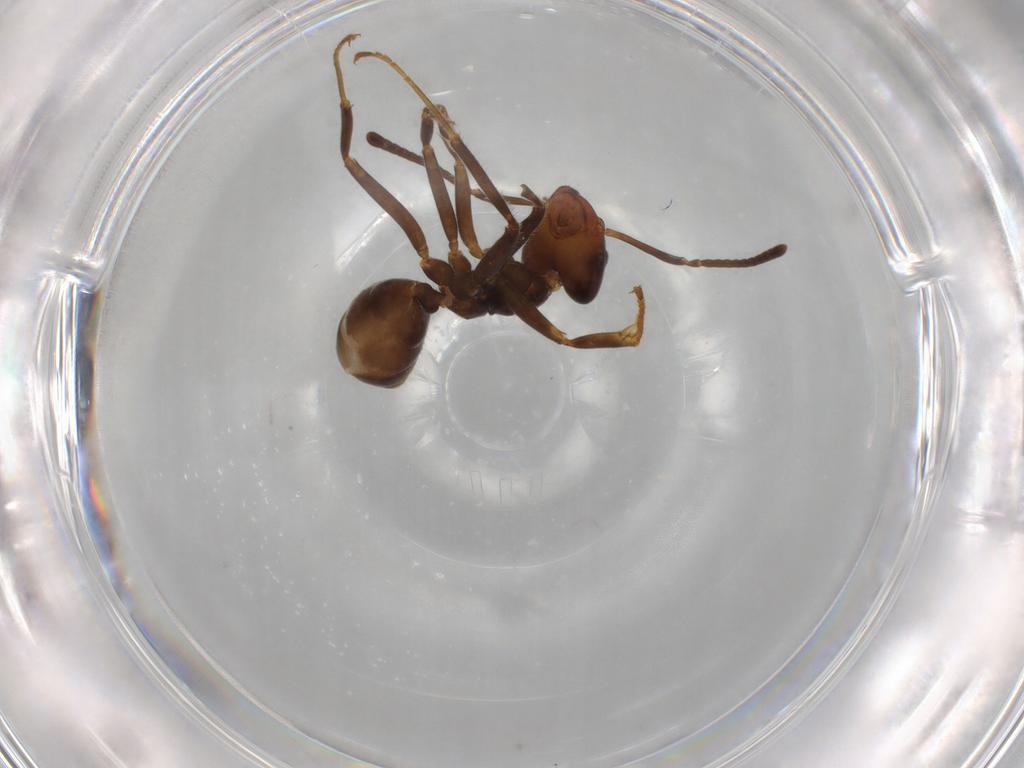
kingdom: Animalia
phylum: Arthropoda
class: Insecta
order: Hymenoptera
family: Formicidae
